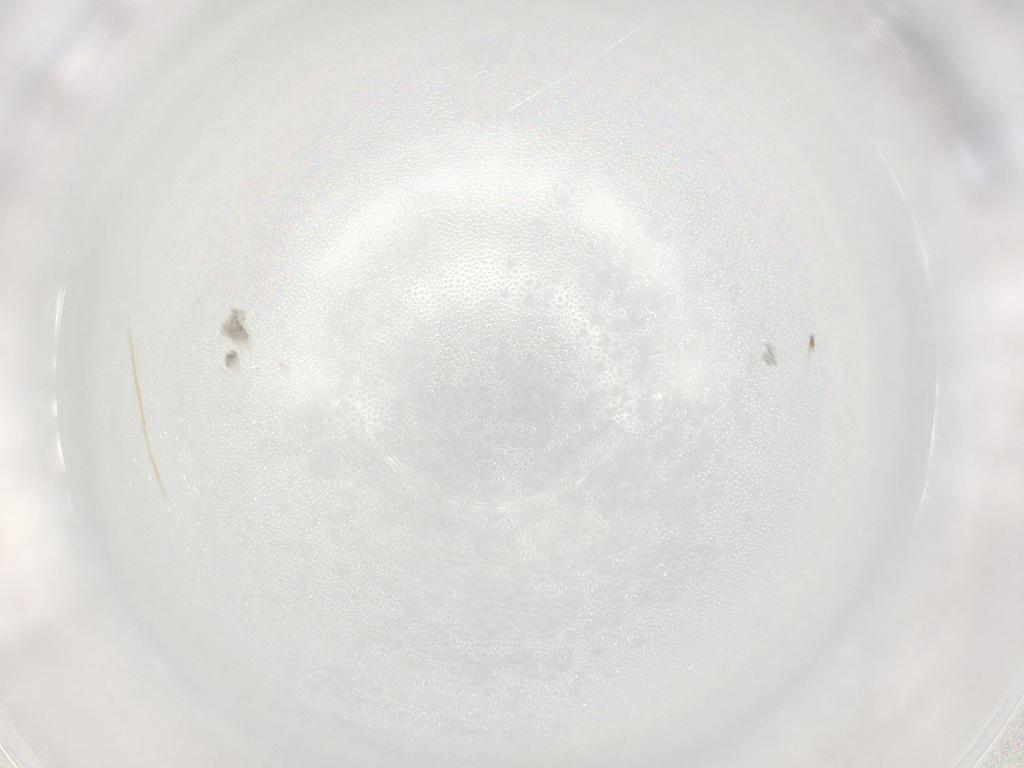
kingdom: Animalia
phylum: Arthropoda
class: Arachnida
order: Trombidiformes
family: Eupodidae
